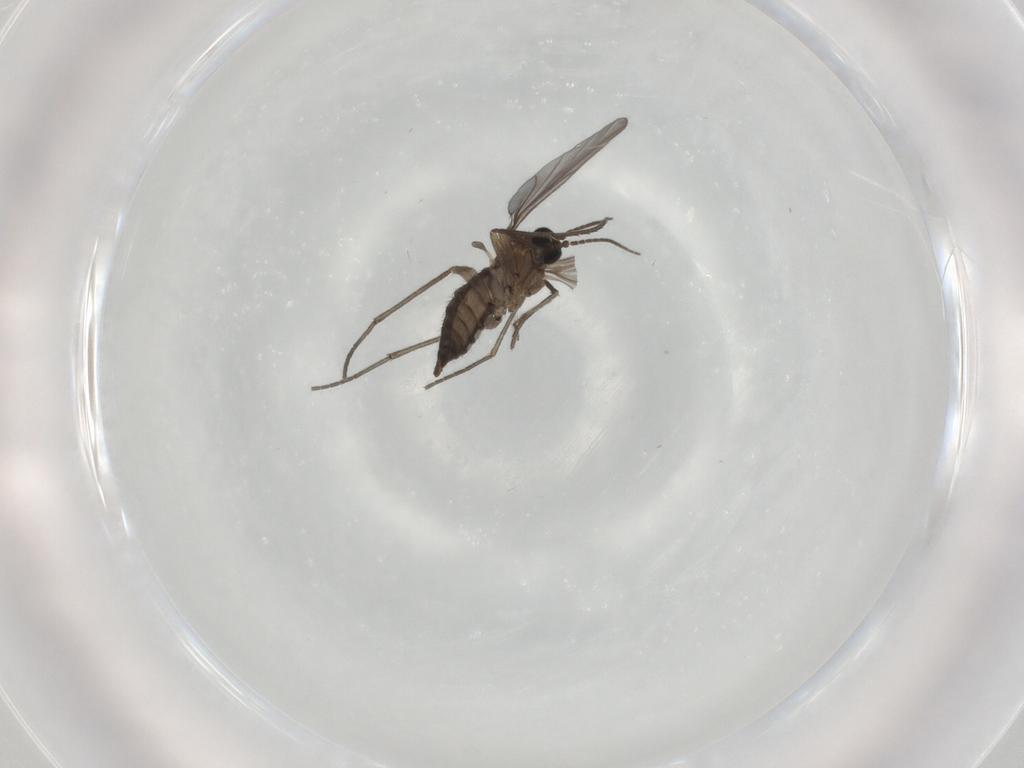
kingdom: Animalia
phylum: Arthropoda
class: Insecta
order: Diptera
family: Sciaridae
